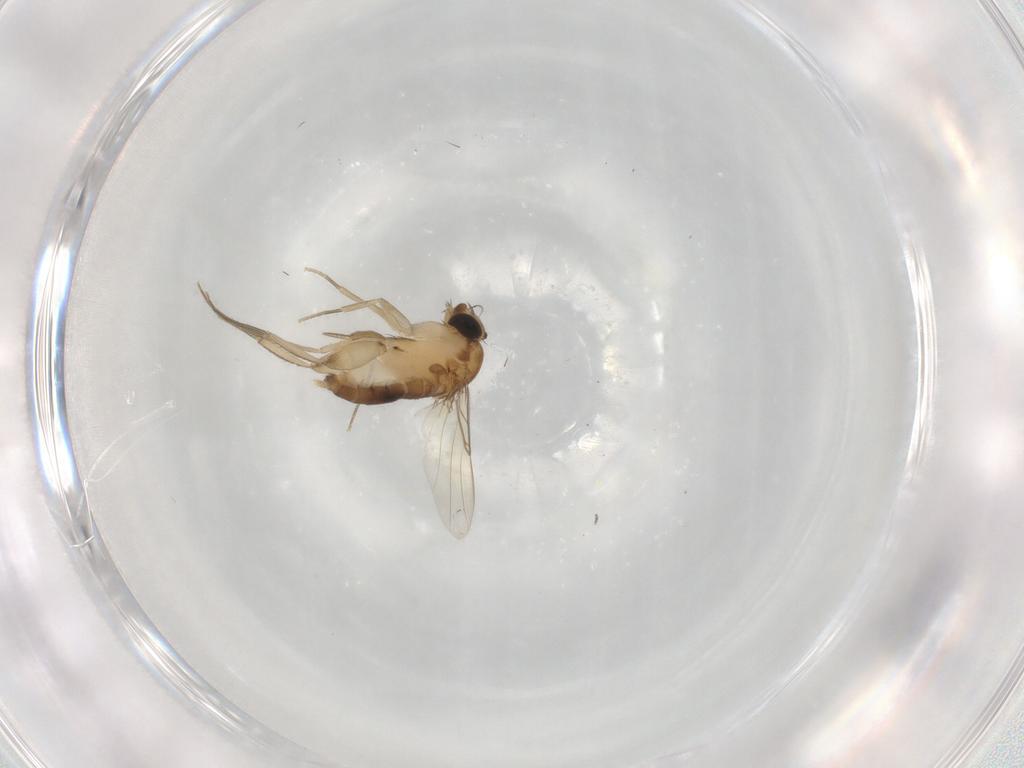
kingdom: Animalia
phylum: Arthropoda
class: Insecta
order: Diptera
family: Phoridae
